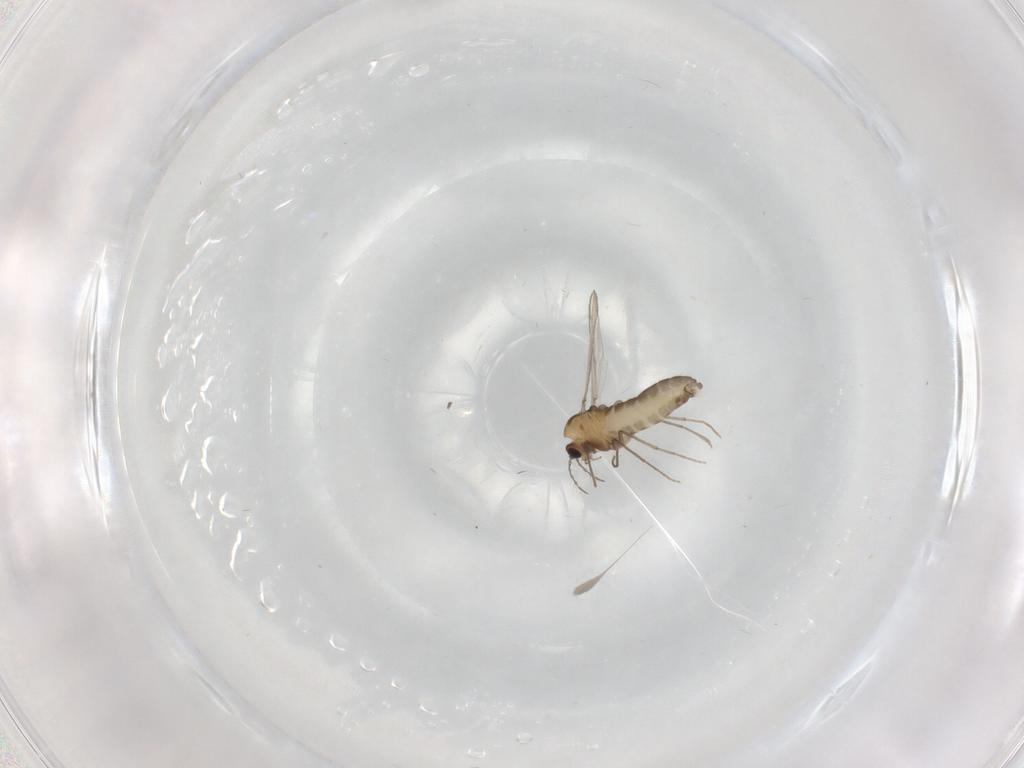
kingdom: Animalia
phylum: Arthropoda
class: Insecta
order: Diptera
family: Chironomidae
